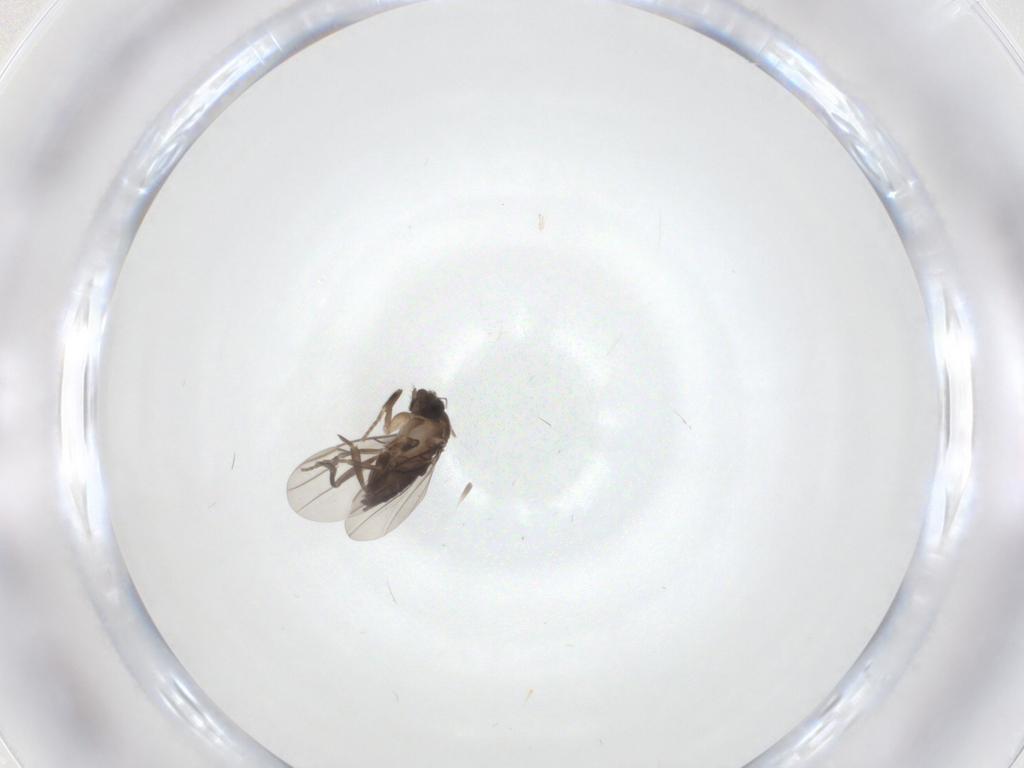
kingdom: Animalia
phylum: Arthropoda
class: Insecta
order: Diptera
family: Phoridae
